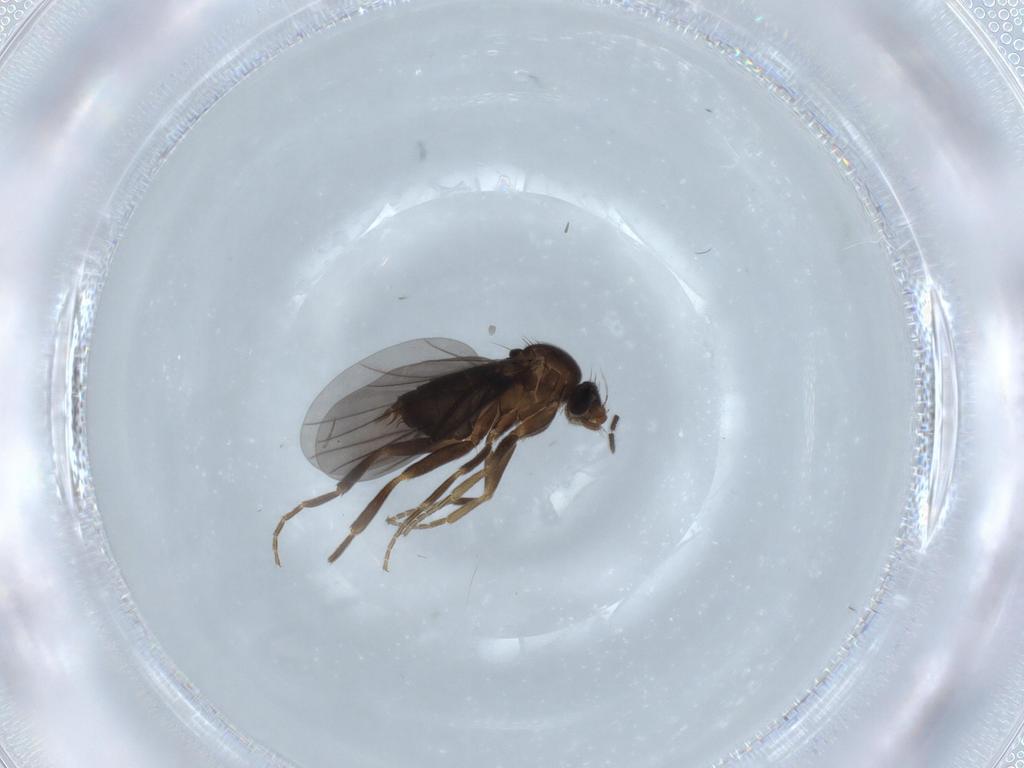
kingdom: Animalia
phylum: Arthropoda
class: Insecta
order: Diptera
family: Phoridae
